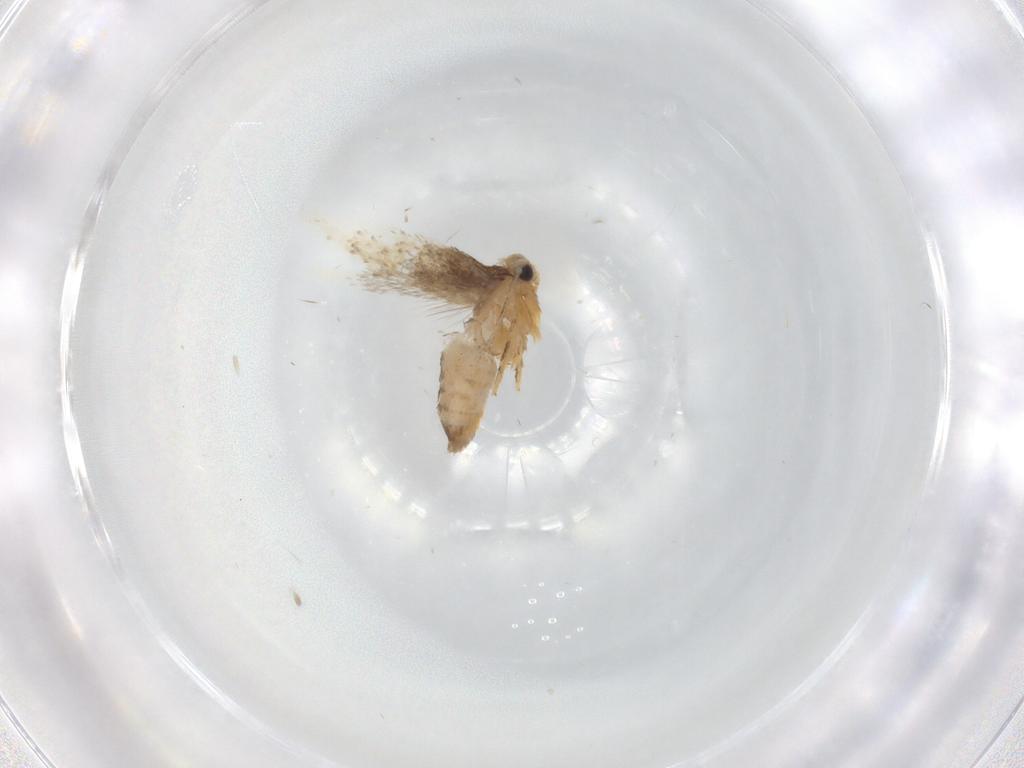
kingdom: Animalia
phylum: Arthropoda
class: Insecta
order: Lepidoptera
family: Nepticulidae
